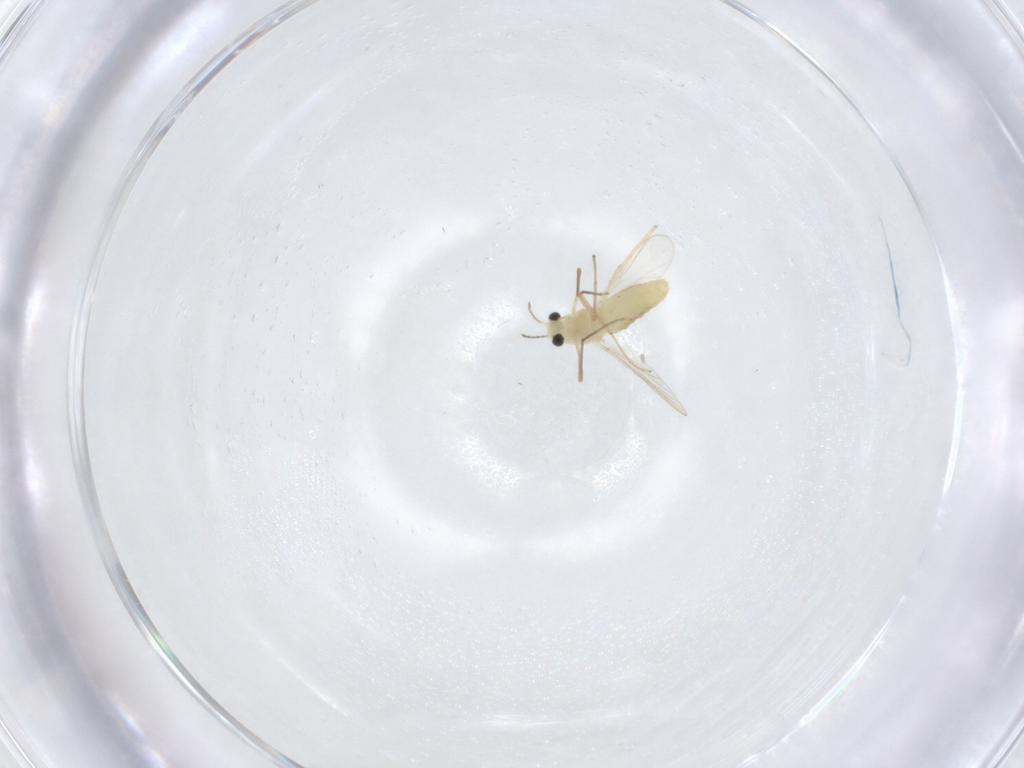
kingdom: Animalia
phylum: Arthropoda
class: Insecta
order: Diptera
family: Chironomidae
